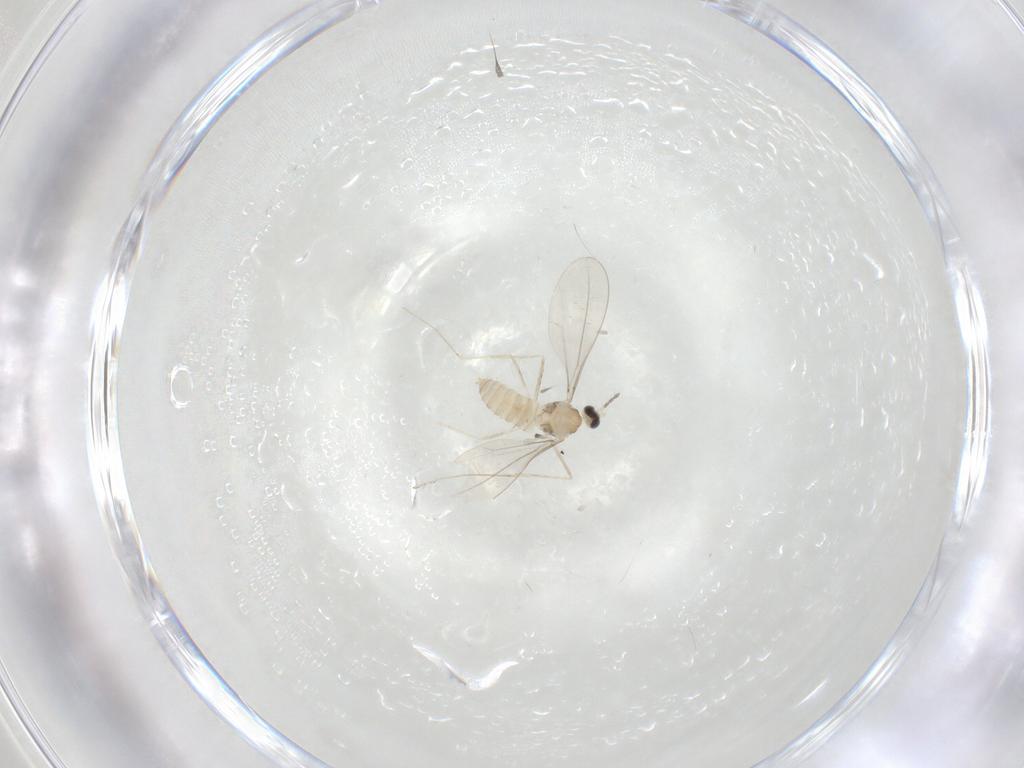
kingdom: Animalia
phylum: Arthropoda
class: Insecta
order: Diptera
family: Cecidomyiidae
